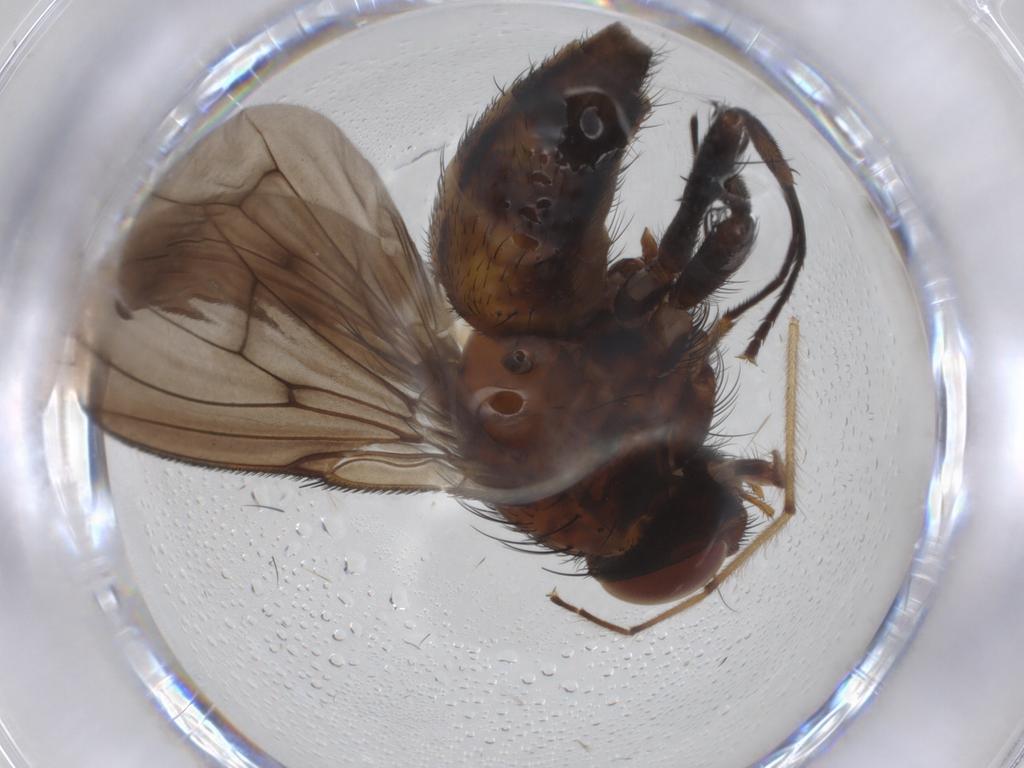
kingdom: Animalia
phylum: Arthropoda
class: Insecta
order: Diptera
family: Muscidae
